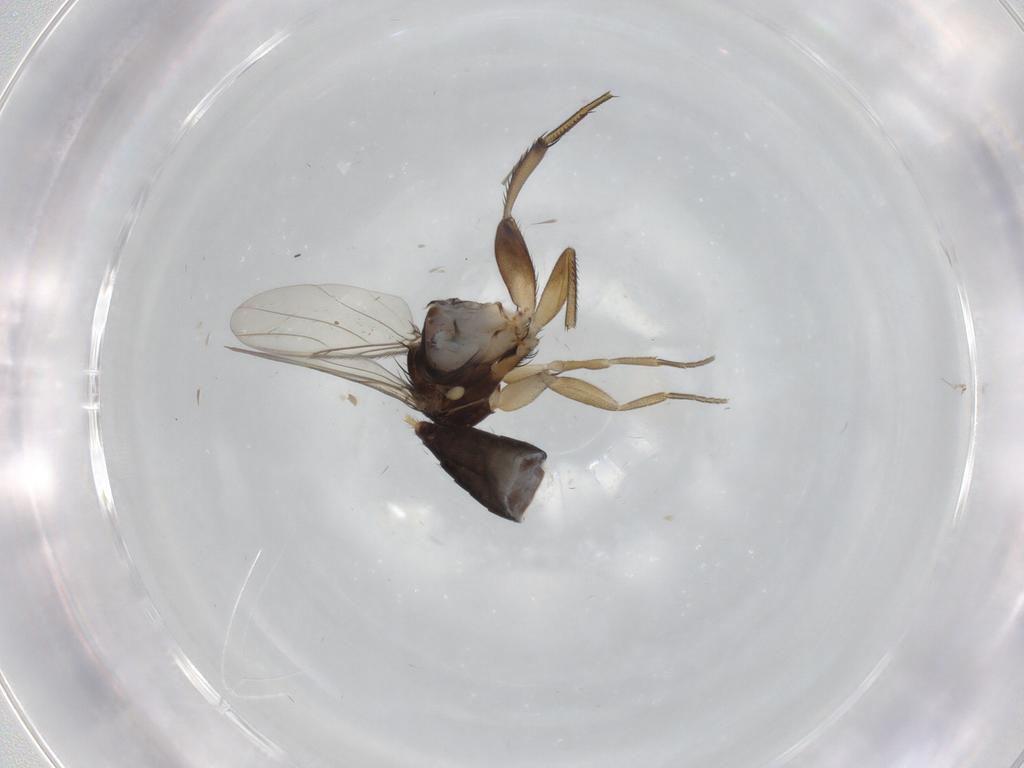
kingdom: Animalia
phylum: Arthropoda
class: Insecta
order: Diptera
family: Phoridae
